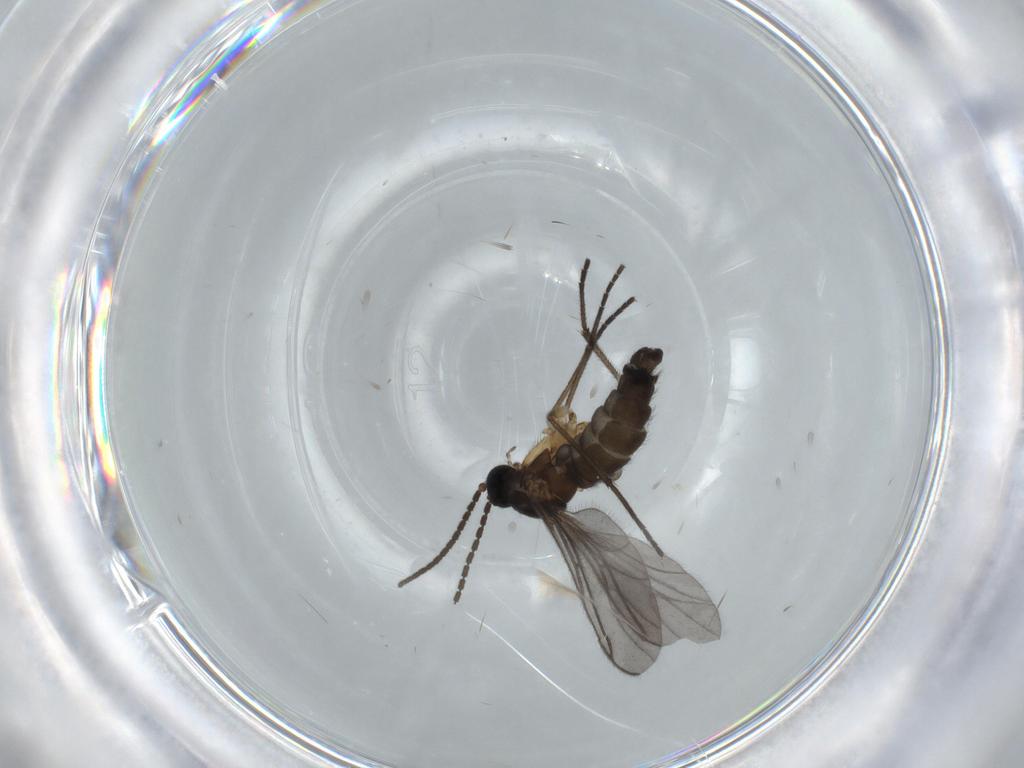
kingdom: Animalia
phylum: Arthropoda
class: Insecta
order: Diptera
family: Sciaridae
